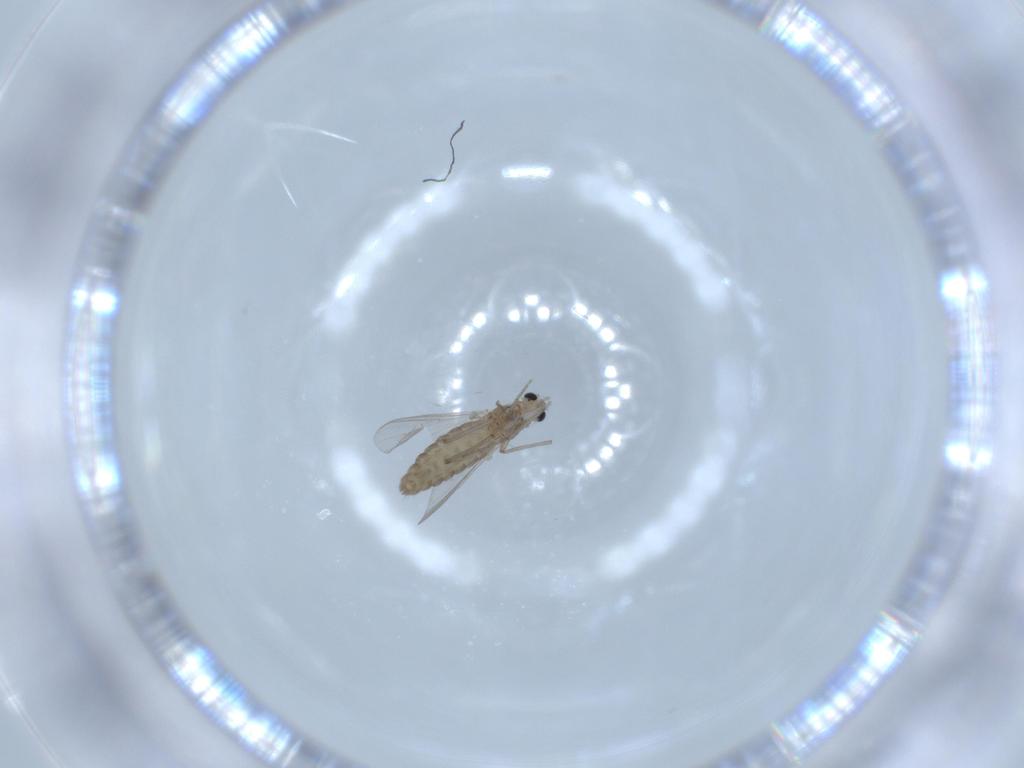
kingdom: Animalia
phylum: Arthropoda
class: Insecta
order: Diptera
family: Chironomidae
